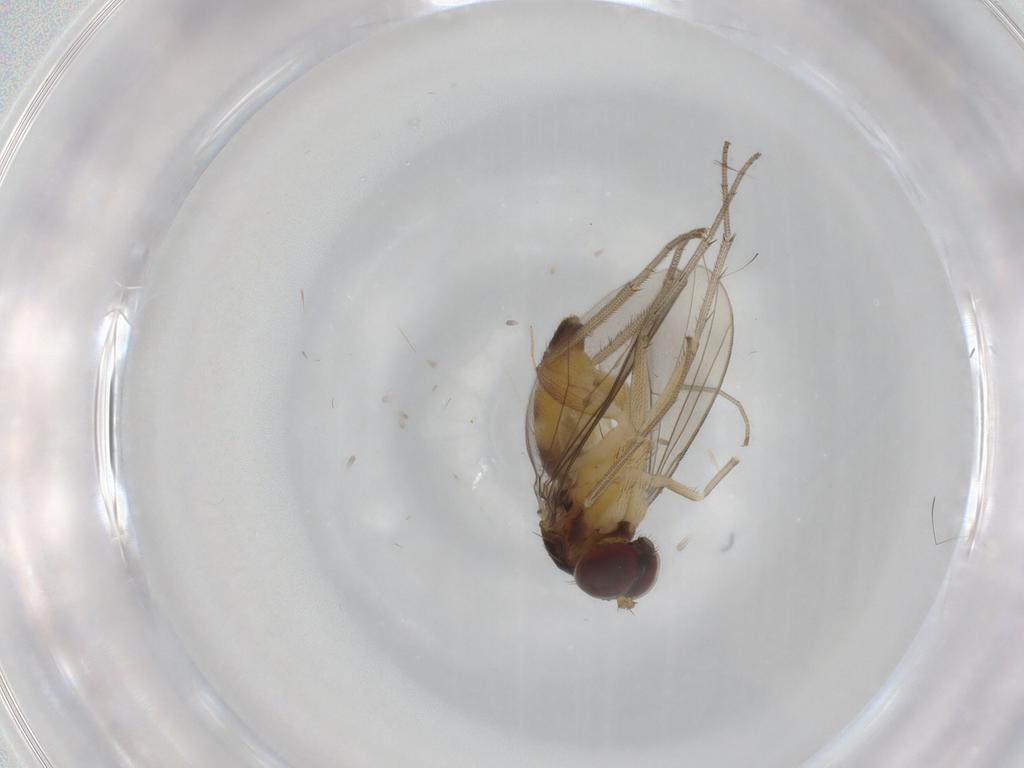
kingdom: Animalia
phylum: Arthropoda
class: Insecta
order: Diptera
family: Dolichopodidae
